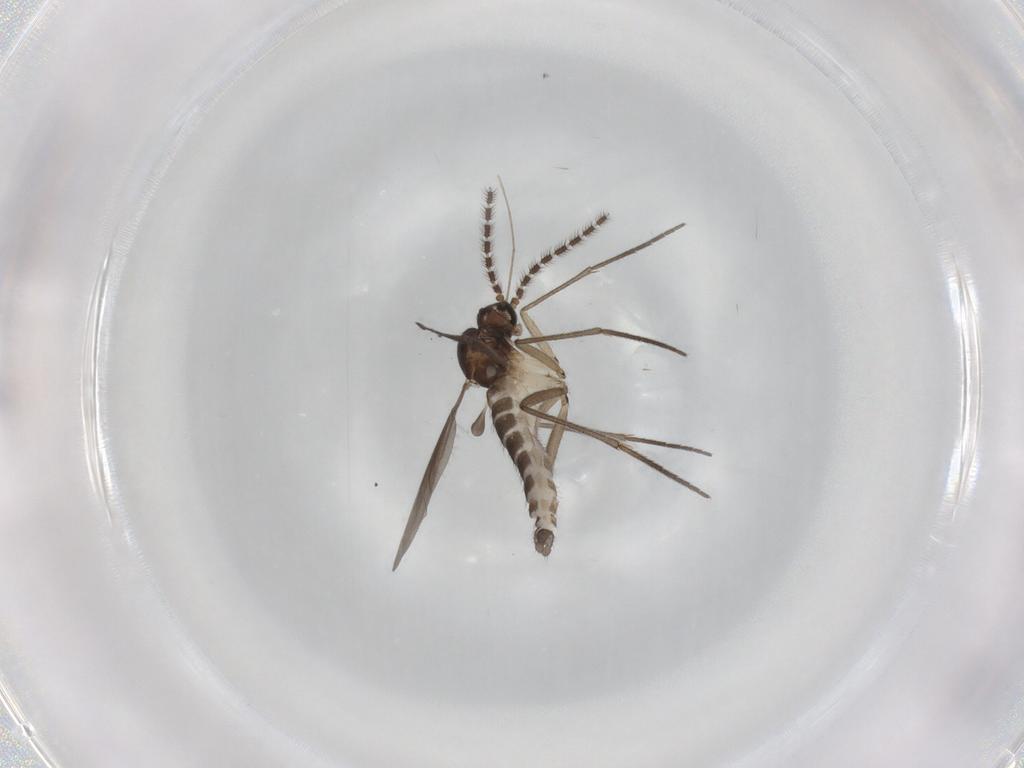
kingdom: Animalia
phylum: Arthropoda
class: Insecta
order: Diptera
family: Sciaridae
